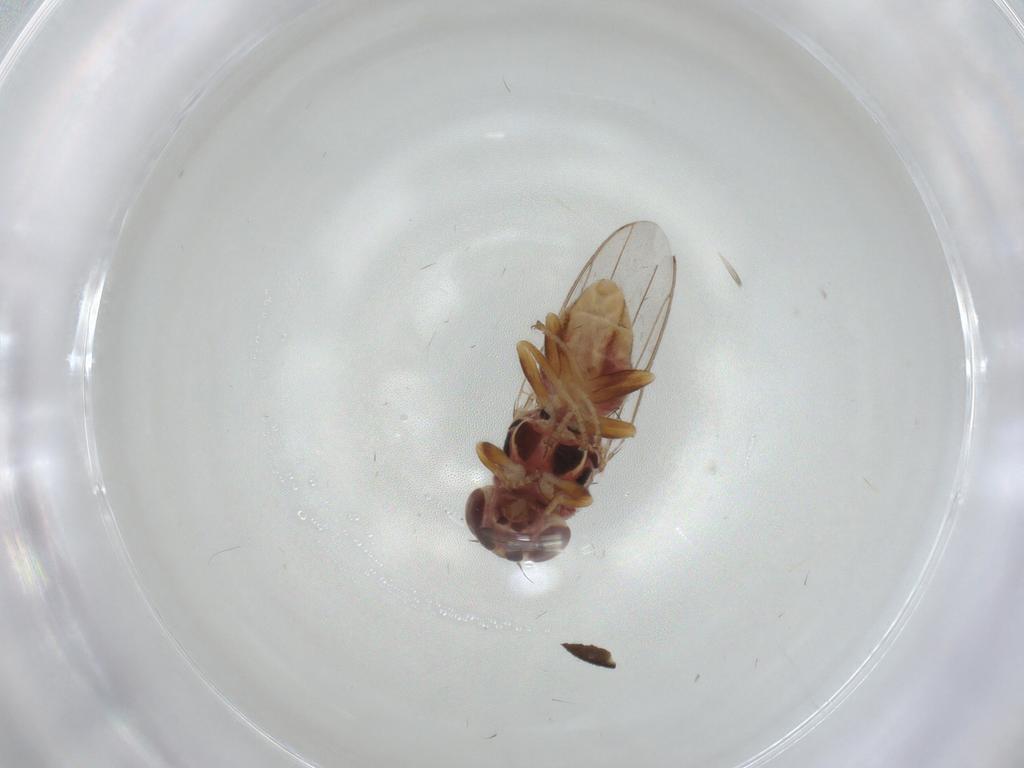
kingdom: Animalia
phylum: Arthropoda
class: Insecta
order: Diptera
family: Chloropidae
